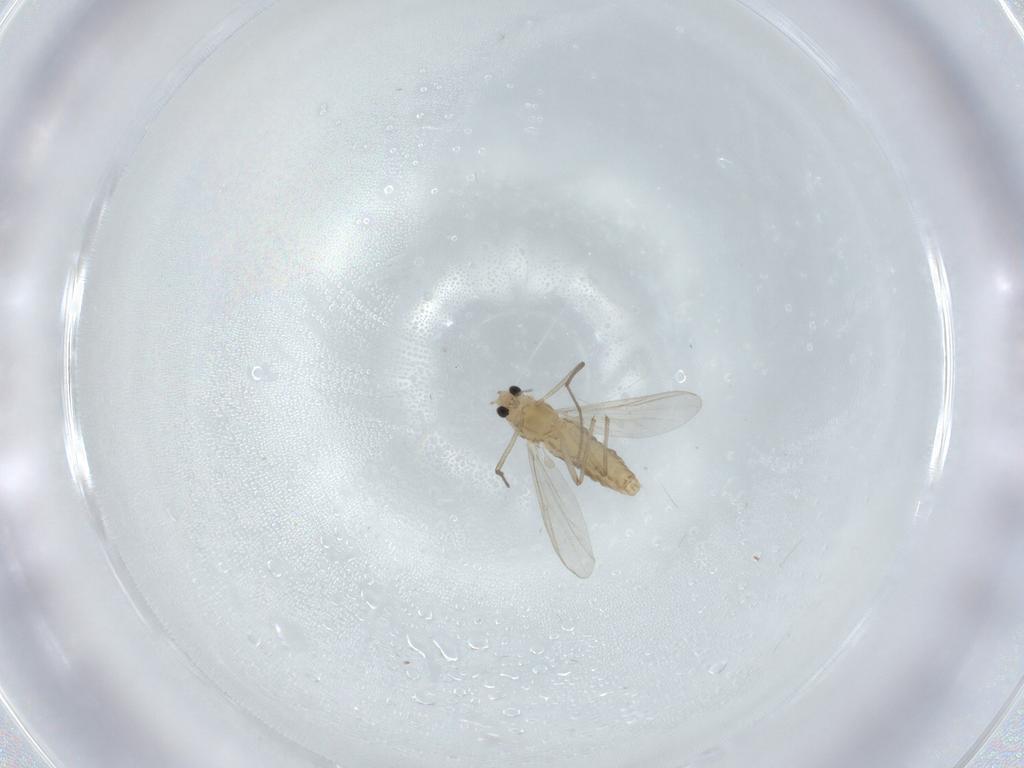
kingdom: Animalia
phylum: Arthropoda
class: Insecta
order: Diptera
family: Chironomidae
